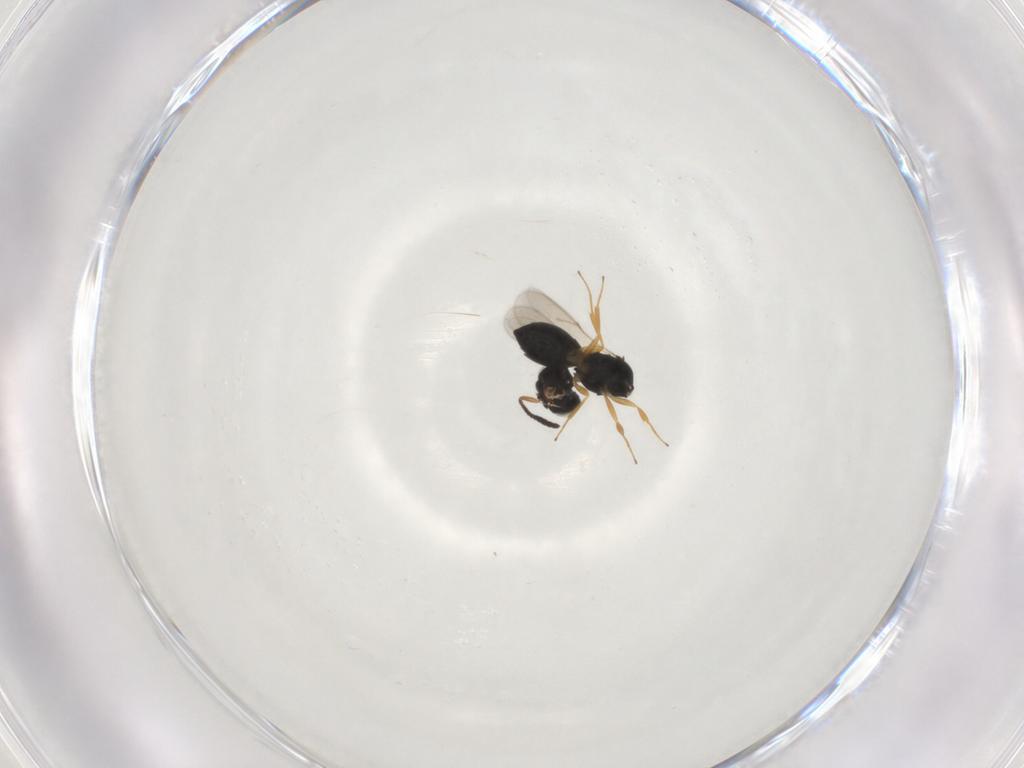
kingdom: Animalia
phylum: Arthropoda
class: Insecta
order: Hymenoptera
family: Scelionidae
